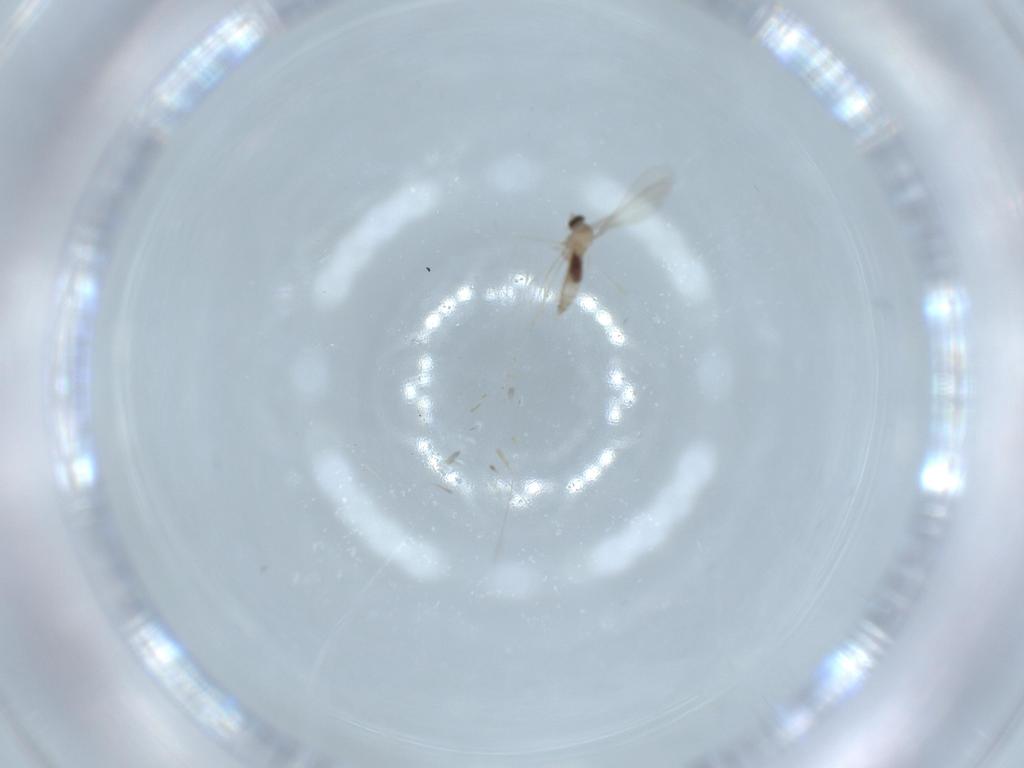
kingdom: Animalia
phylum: Arthropoda
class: Insecta
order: Diptera
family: Cecidomyiidae
